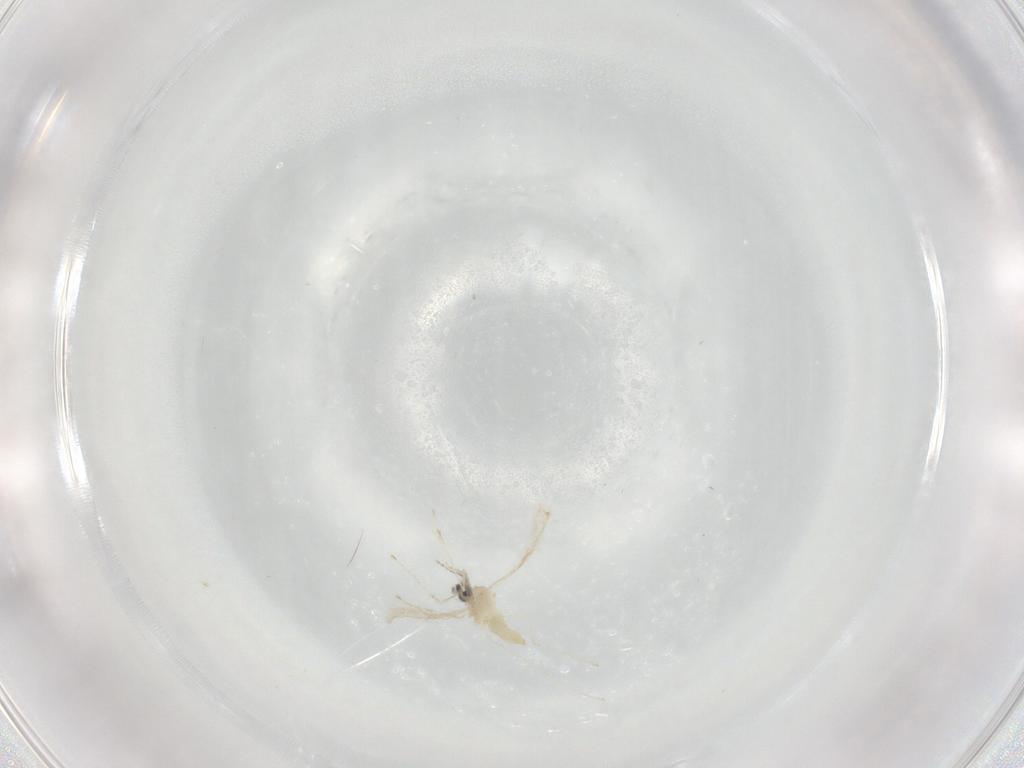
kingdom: Animalia
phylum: Arthropoda
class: Insecta
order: Diptera
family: Cecidomyiidae
